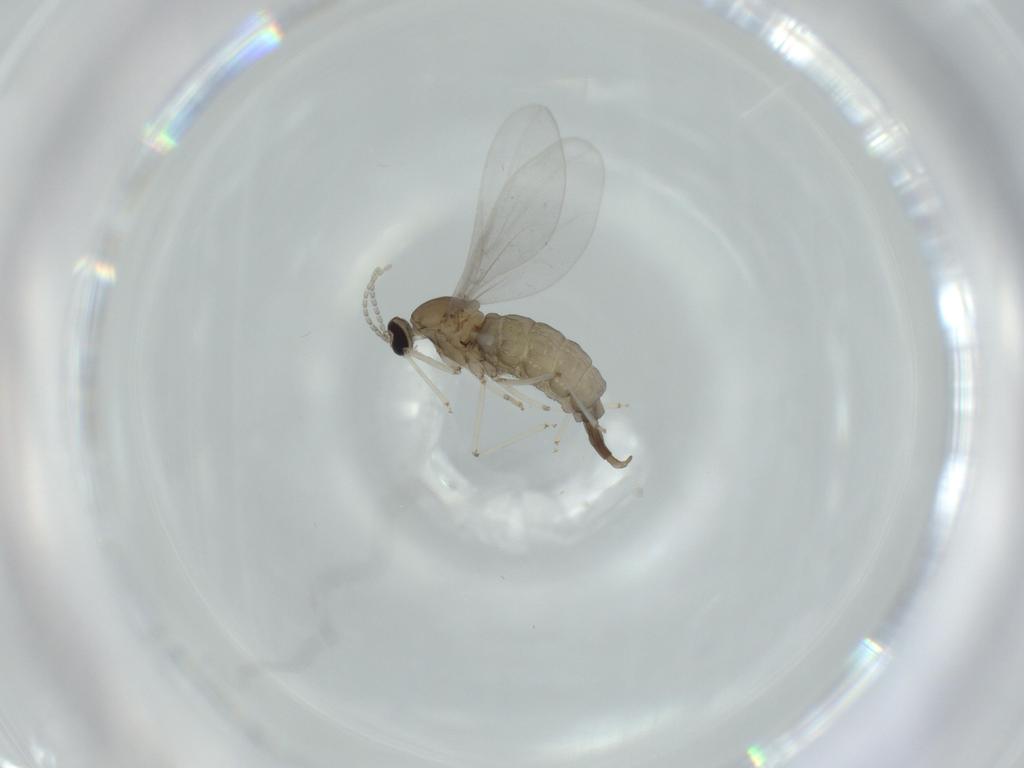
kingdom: Animalia
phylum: Arthropoda
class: Insecta
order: Diptera
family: Cecidomyiidae
